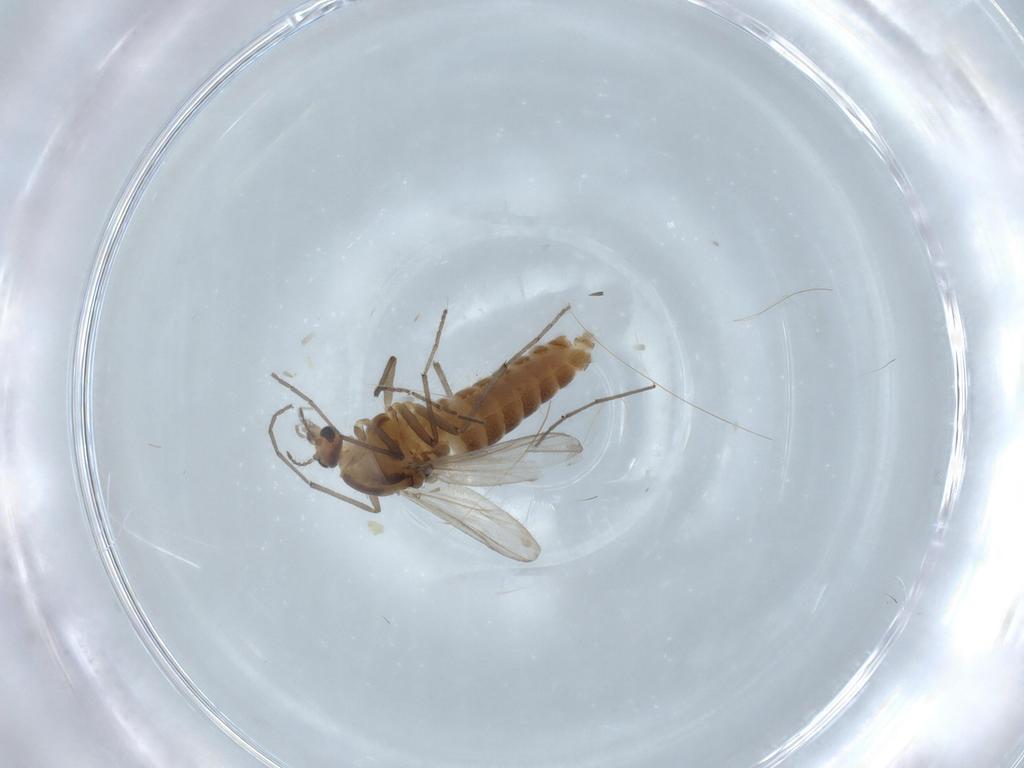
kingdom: Animalia
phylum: Arthropoda
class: Insecta
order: Diptera
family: Chironomidae
